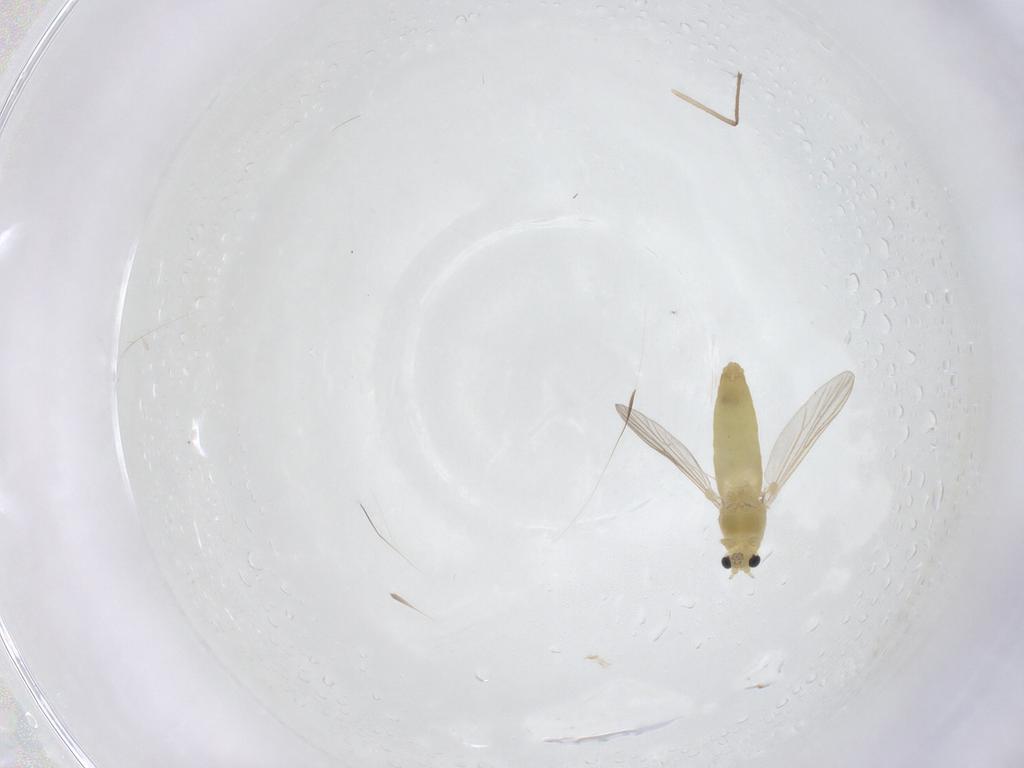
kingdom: Animalia
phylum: Arthropoda
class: Insecta
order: Diptera
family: Chironomidae
